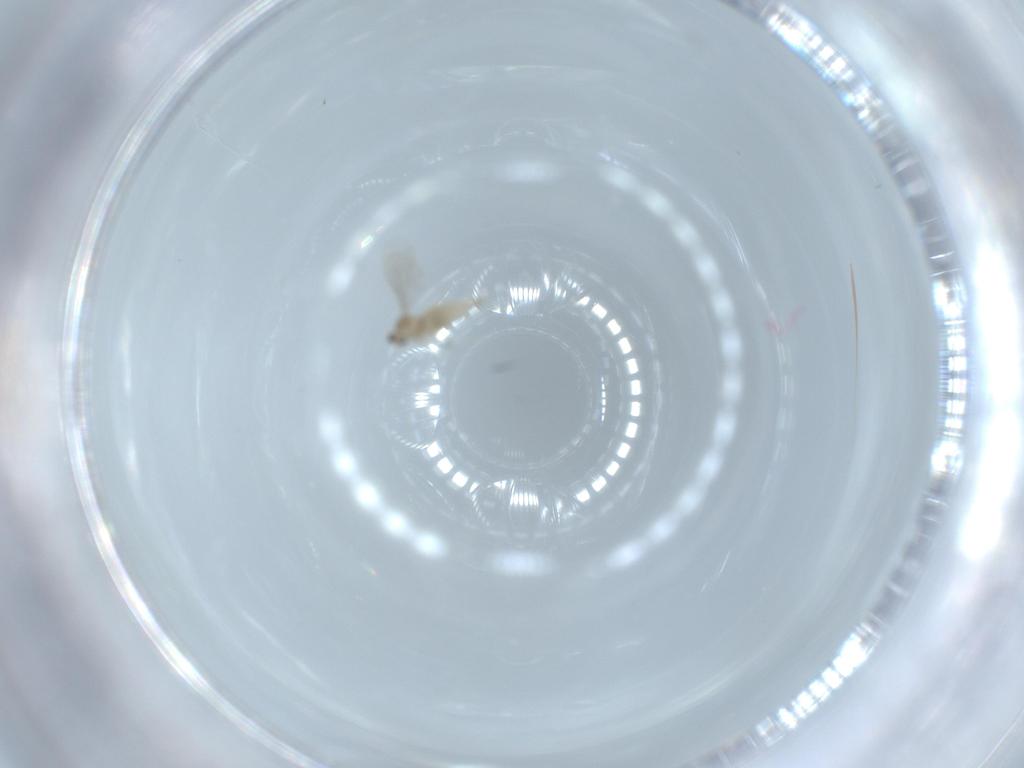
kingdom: Animalia
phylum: Arthropoda
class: Insecta
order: Diptera
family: Cecidomyiidae
